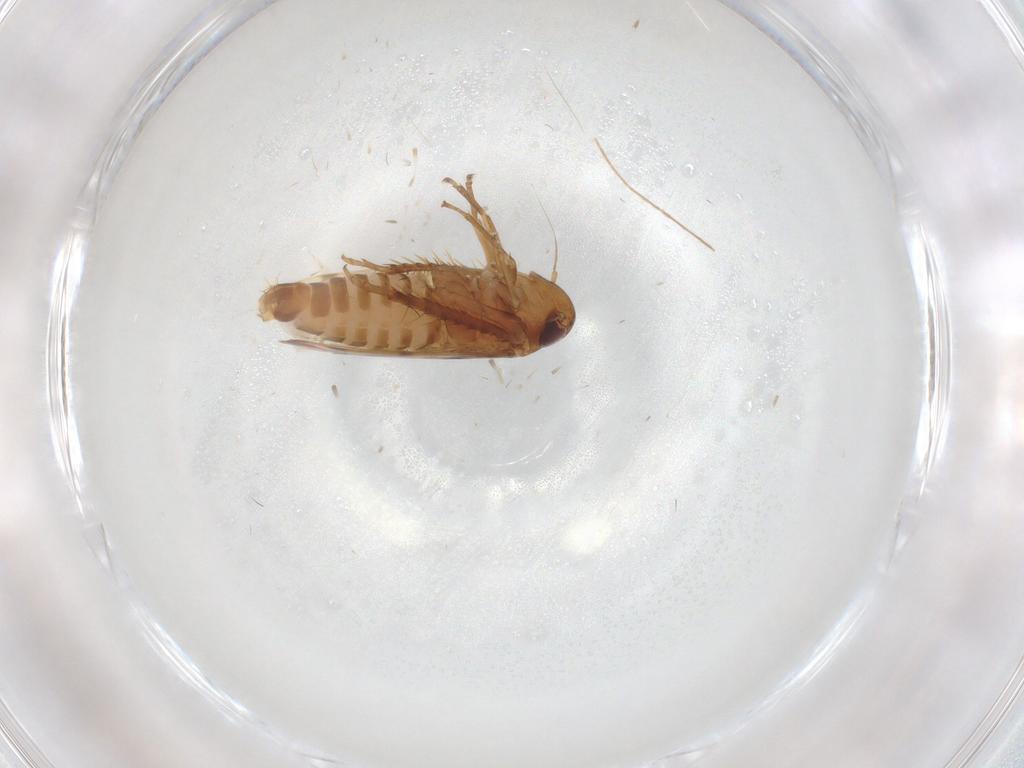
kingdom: Animalia
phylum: Arthropoda
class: Insecta
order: Hemiptera
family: Cicadellidae
